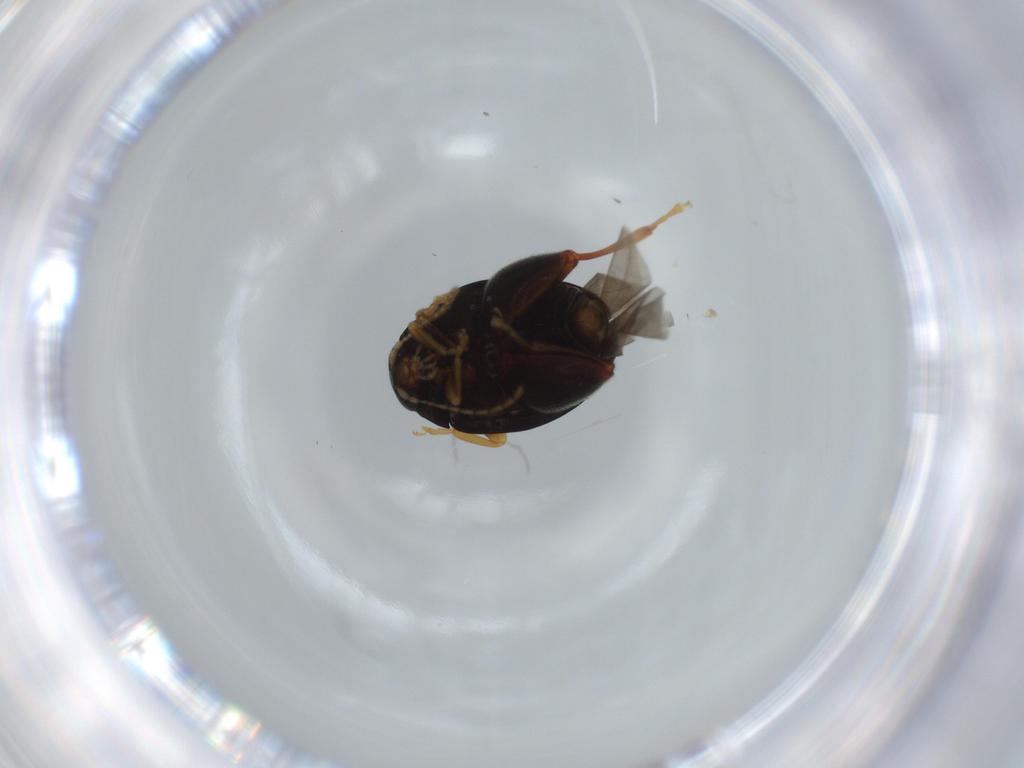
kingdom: Animalia
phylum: Arthropoda
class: Insecta
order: Coleoptera
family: Chrysomelidae
